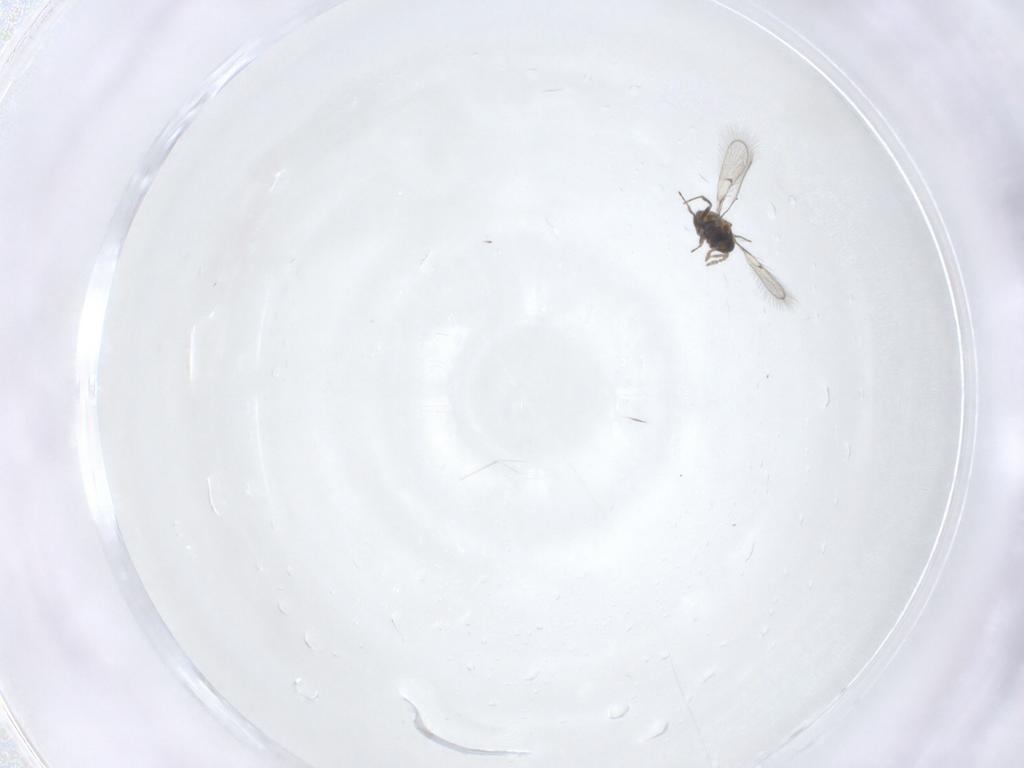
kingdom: Animalia
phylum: Arthropoda
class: Insecta
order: Hymenoptera
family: Trichogrammatidae
